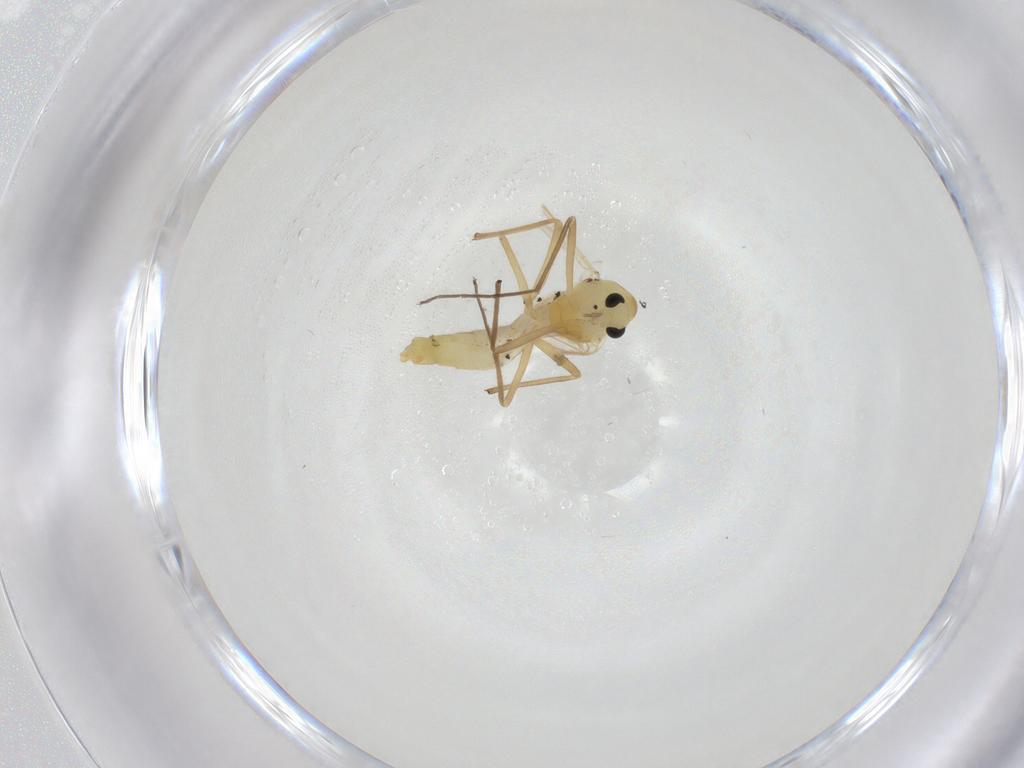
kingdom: Animalia
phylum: Arthropoda
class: Insecta
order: Diptera
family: Chironomidae
